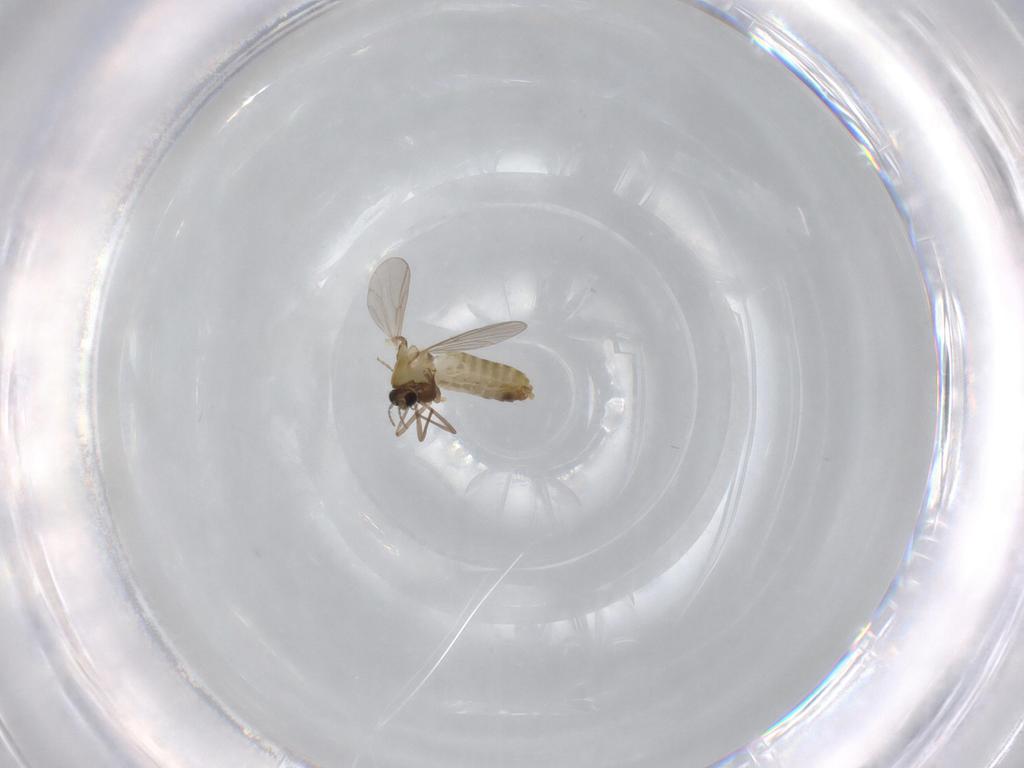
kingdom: Animalia
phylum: Arthropoda
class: Insecta
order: Diptera
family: Chironomidae
